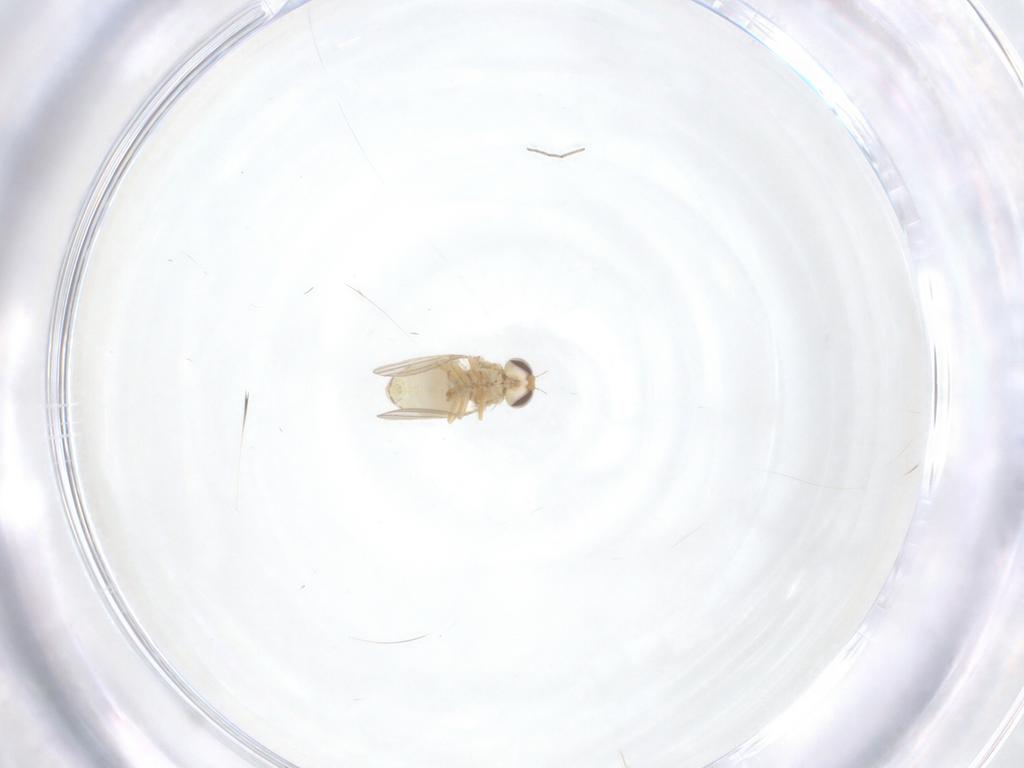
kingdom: Animalia
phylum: Arthropoda
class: Insecta
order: Diptera
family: Chyromyidae
